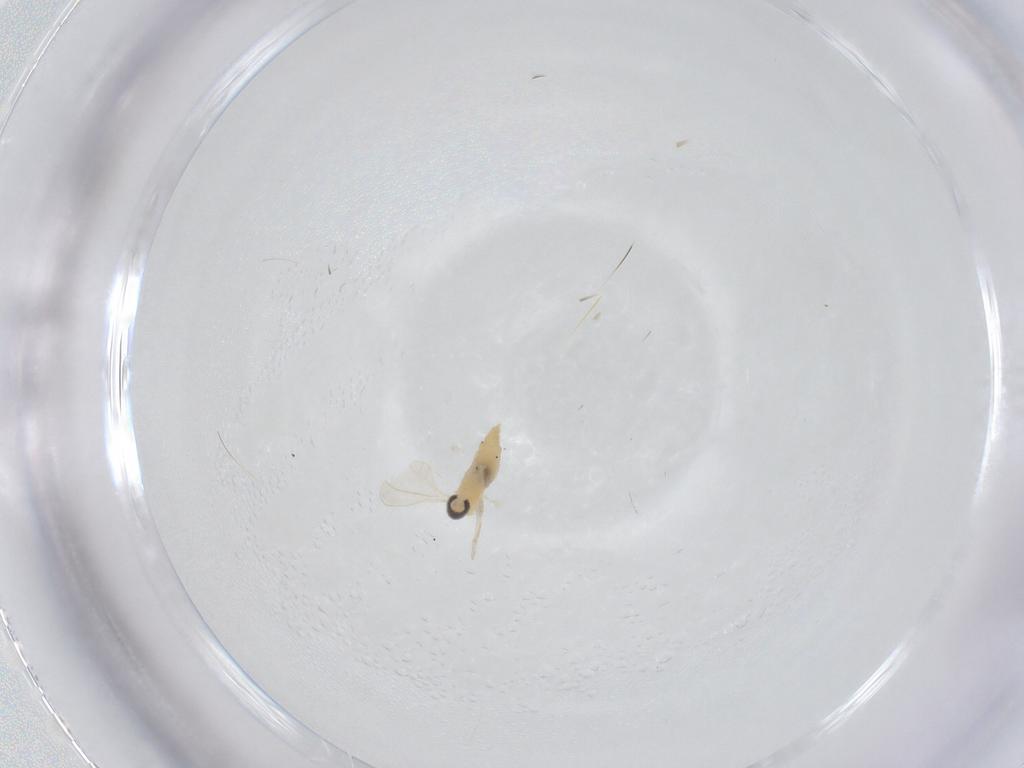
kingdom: Animalia
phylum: Arthropoda
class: Insecta
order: Diptera
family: Cecidomyiidae
